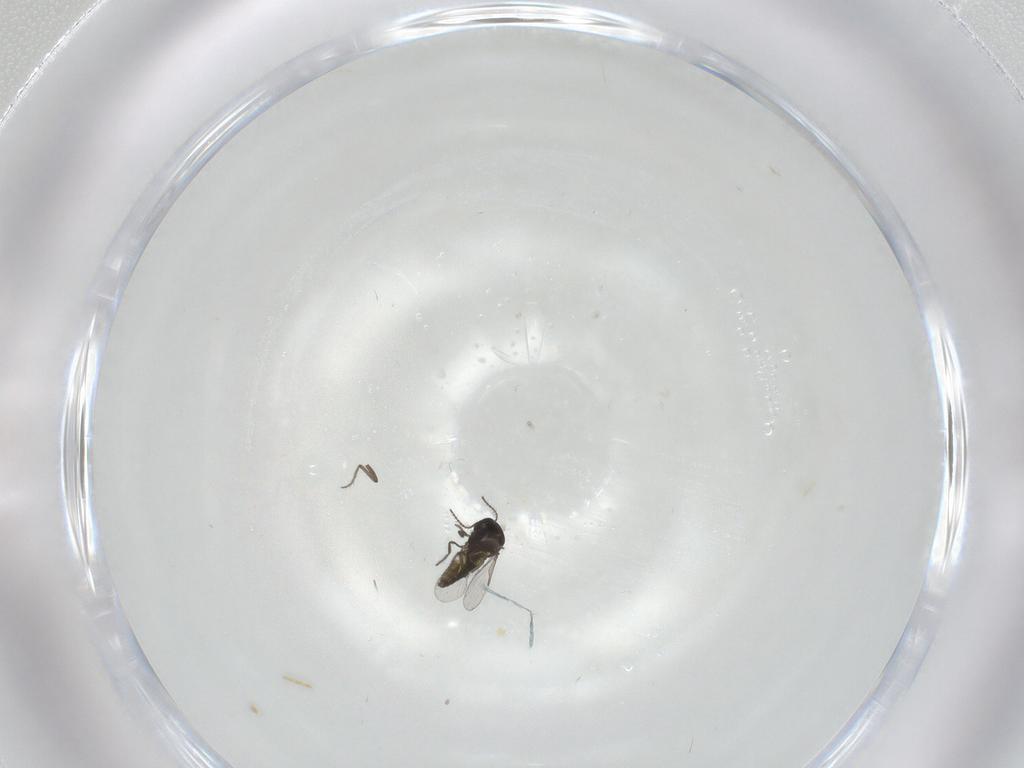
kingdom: Animalia
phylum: Arthropoda
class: Insecta
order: Diptera
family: Ceratopogonidae
